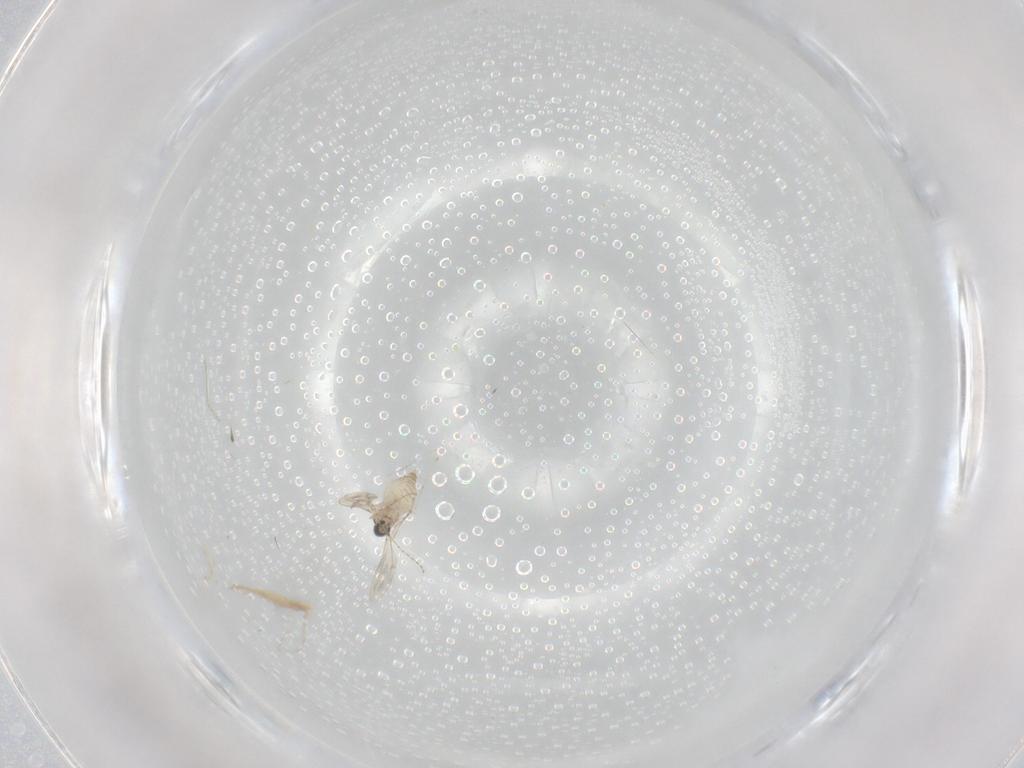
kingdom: Animalia
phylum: Arthropoda
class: Insecta
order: Diptera
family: Cecidomyiidae
